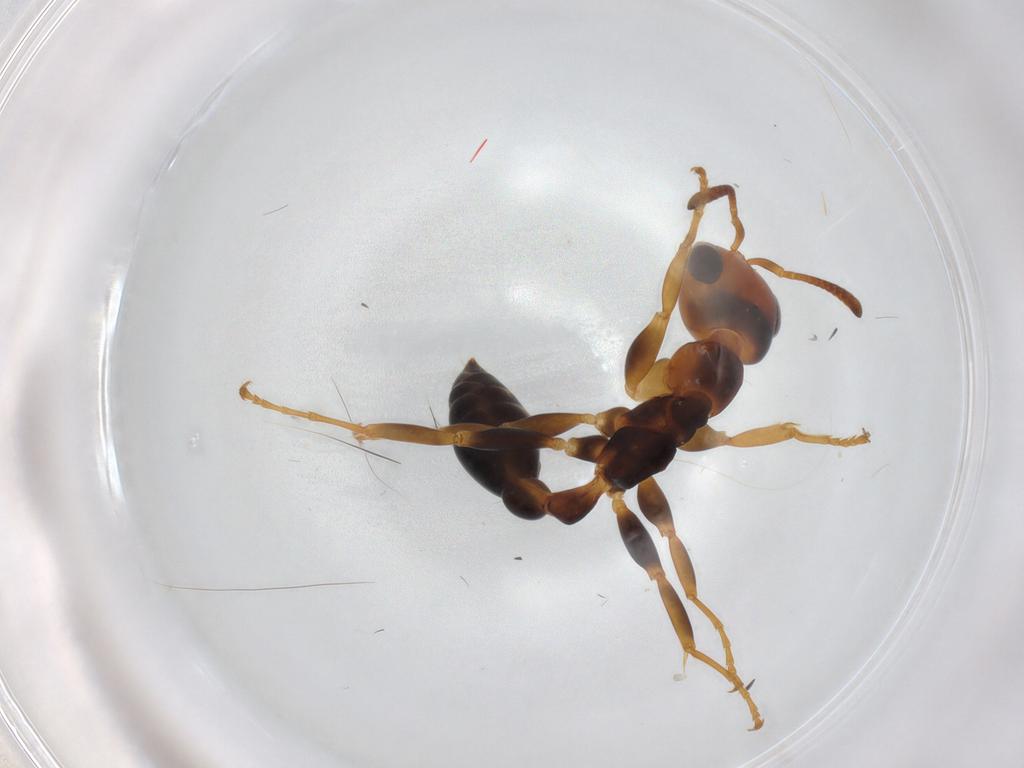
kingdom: Animalia
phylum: Arthropoda
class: Insecta
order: Hymenoptera
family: Formicidae
